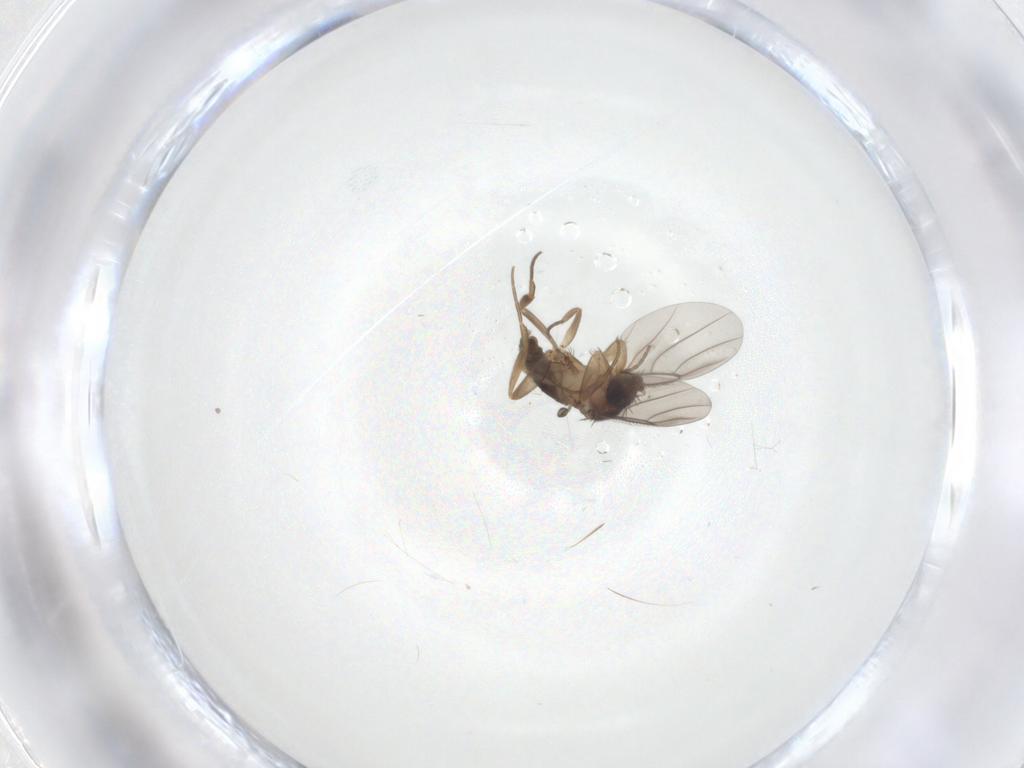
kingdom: Animalia
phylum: Arthropoda
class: Insecta
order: Diptera
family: Cecidomyiidae
